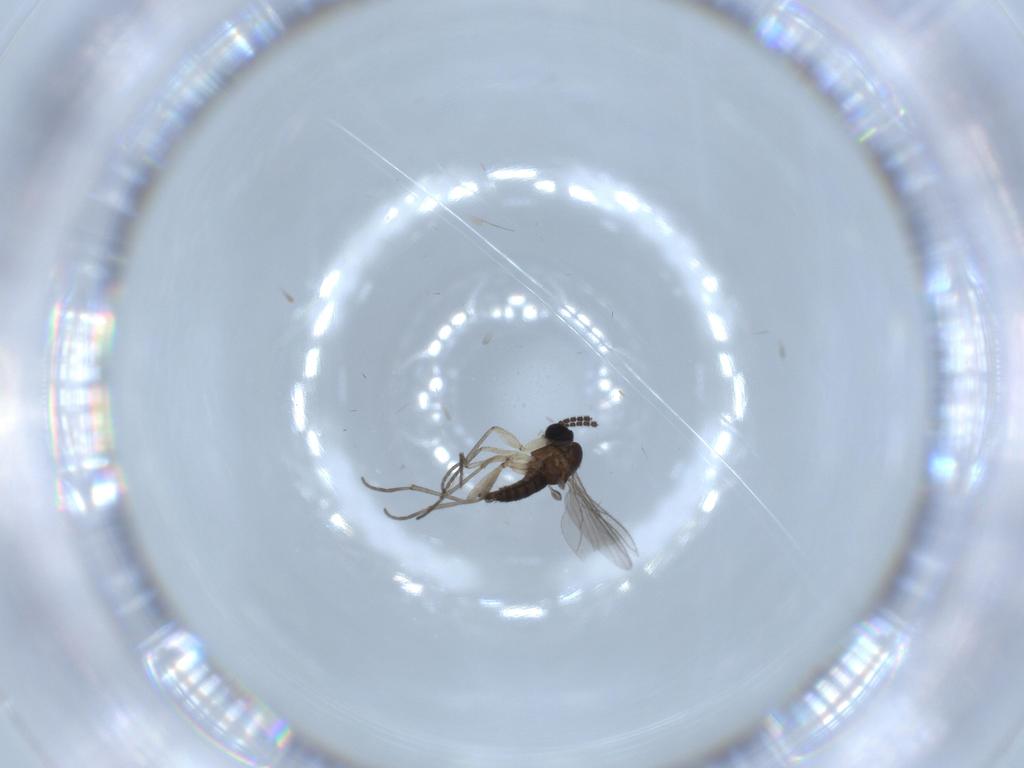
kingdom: Animalia
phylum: Arthropoda
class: Insecta
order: Diptera
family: Sciaridae
